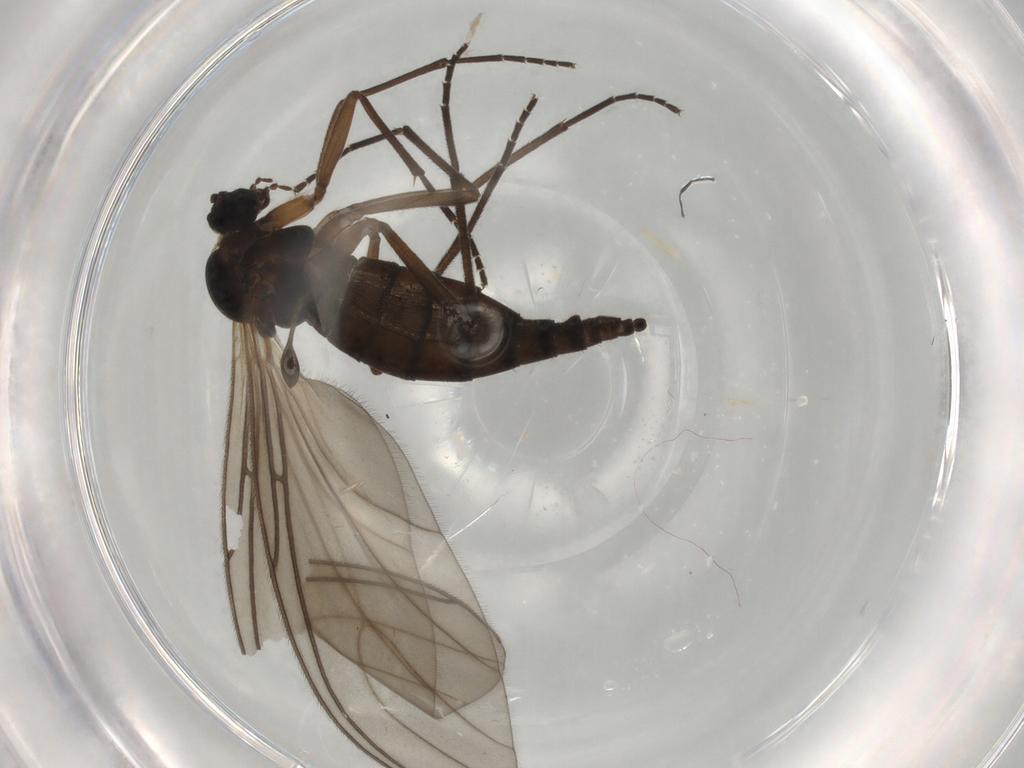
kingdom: Animalia
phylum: Arthropoda
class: Insecta
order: Diptera
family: Sciaridae
